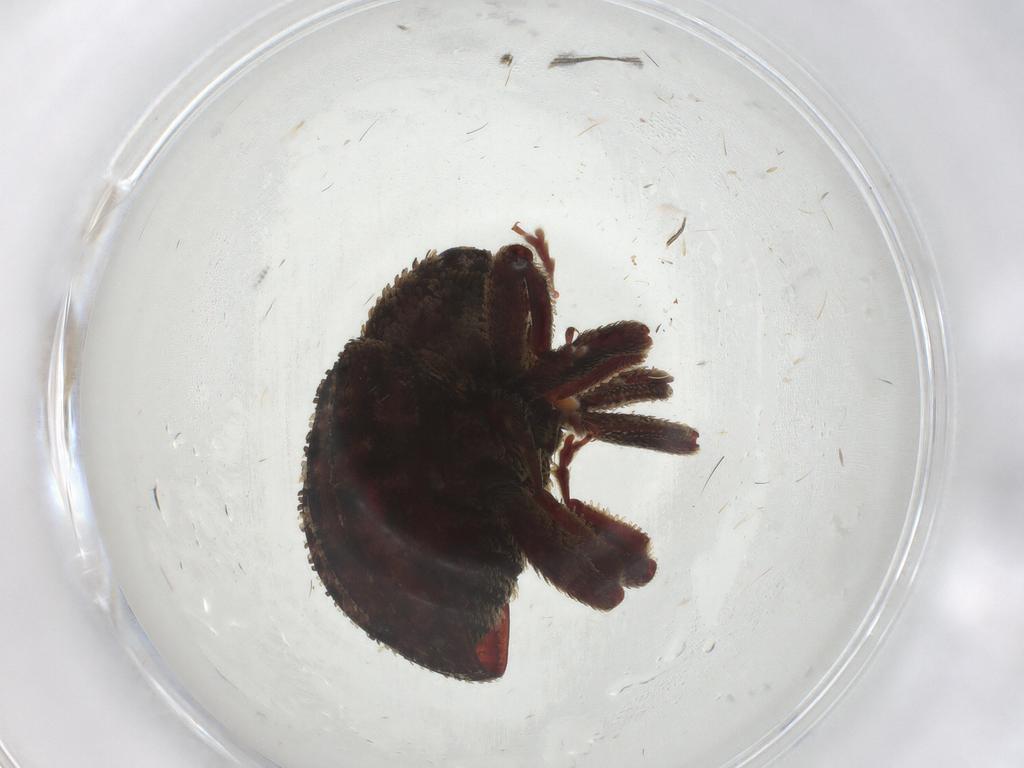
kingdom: Animalia
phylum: Arthropoda
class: Insecta
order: Coleoptera
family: Curculionidae
